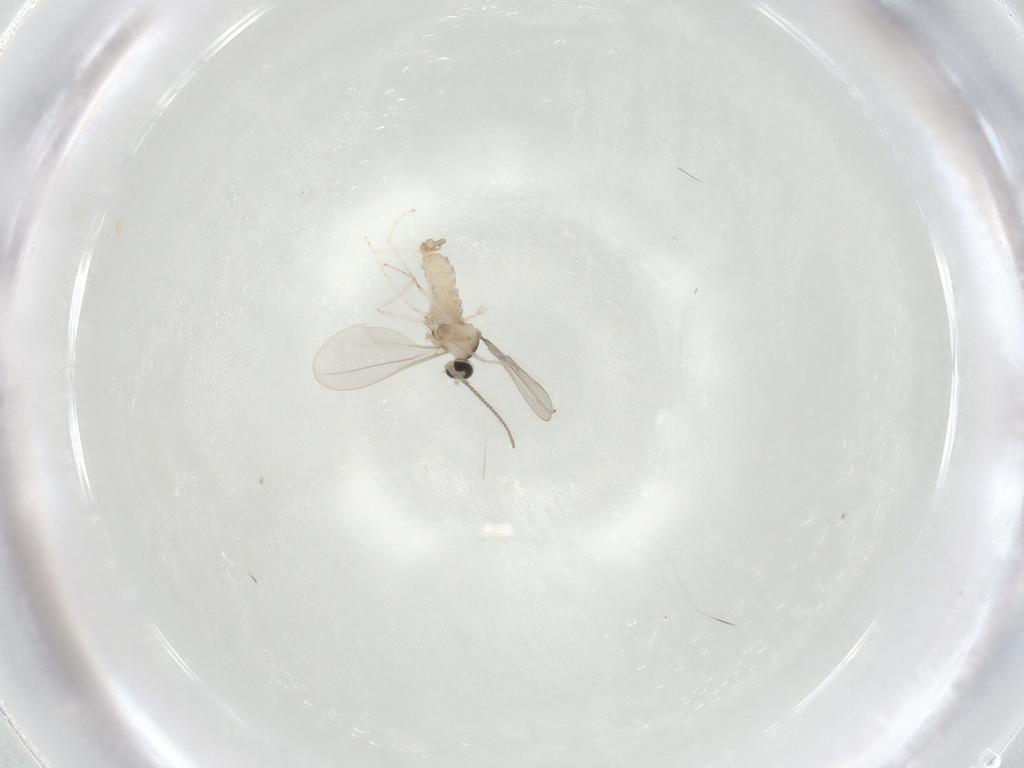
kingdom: Animalia
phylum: Arthropoda
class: Insecta
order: Diptera
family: Cecidomyiidae
